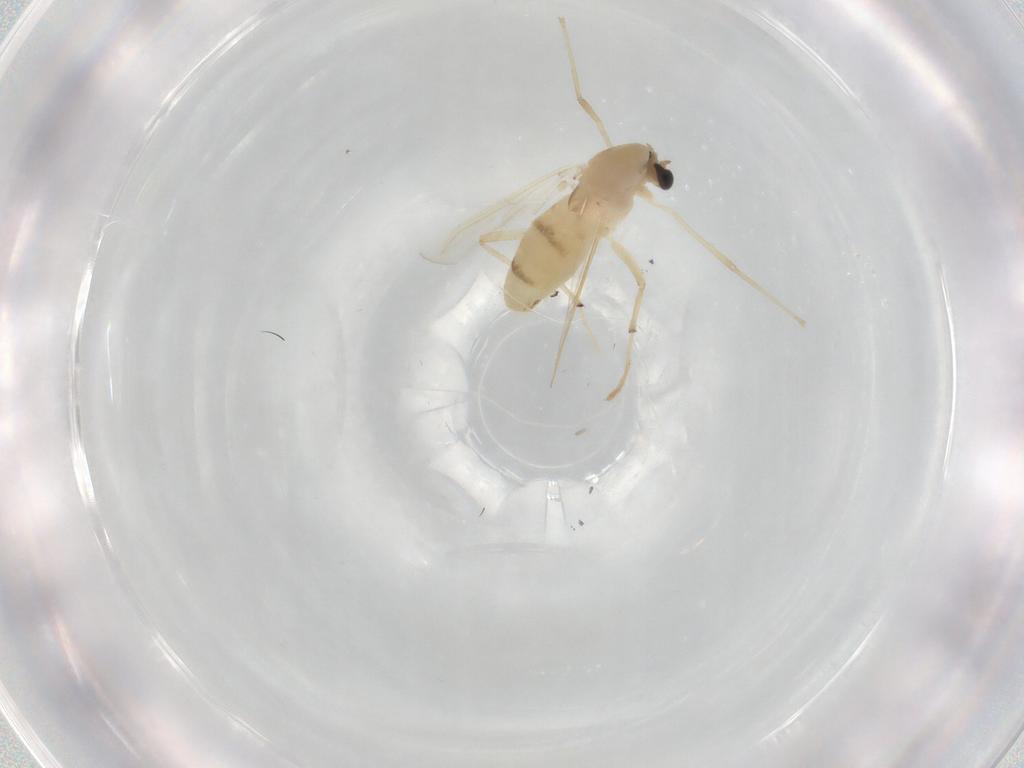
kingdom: Animalia
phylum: Arthropoda
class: Insecta
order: Diptera
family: Chironomidae
